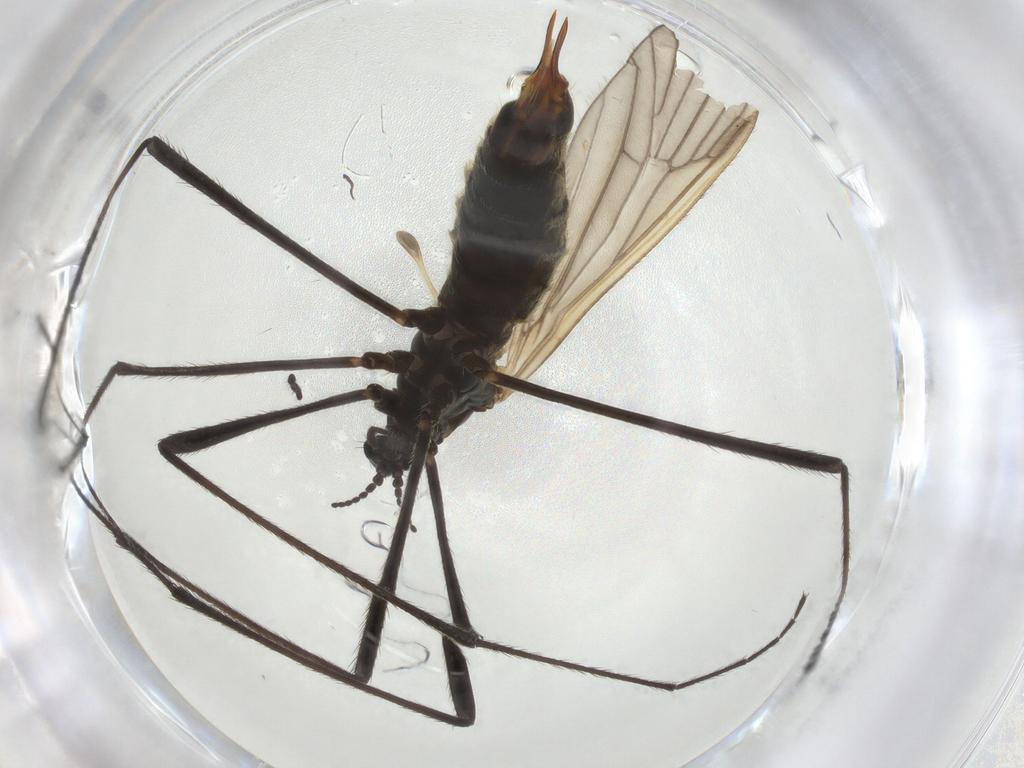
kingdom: Animalia
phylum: Arthropoda
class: Insecta
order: Diptera
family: Limoniidae
